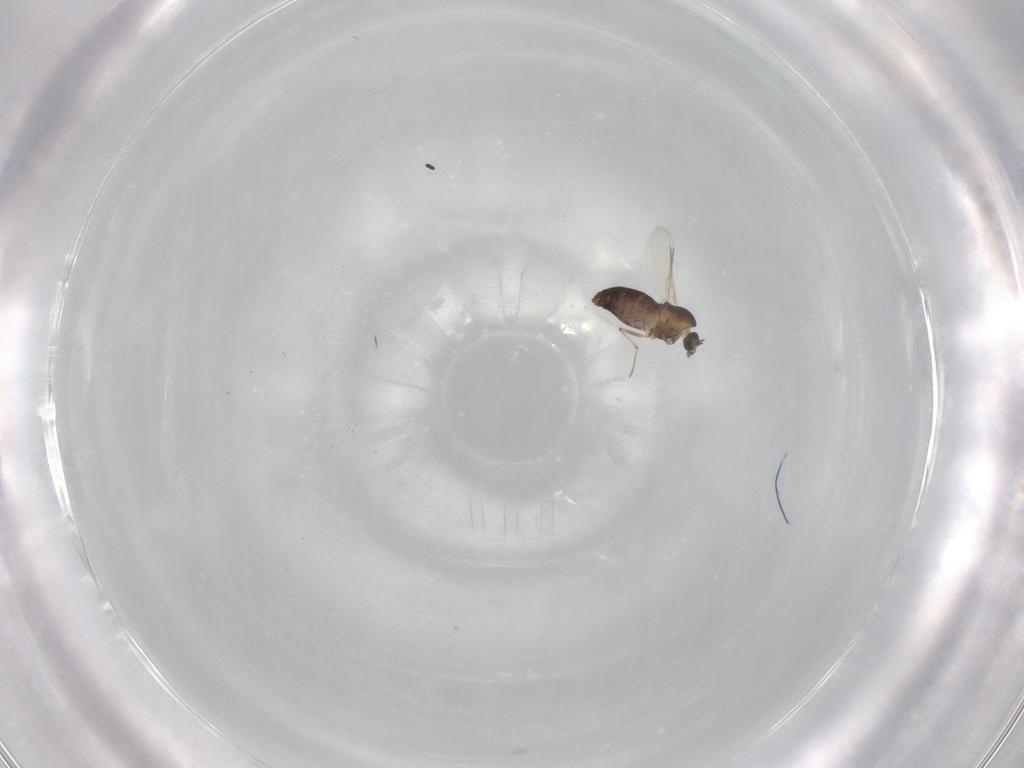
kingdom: Animalia
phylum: Arthropoda
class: Insecta
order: Diptera
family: Chironomidae
